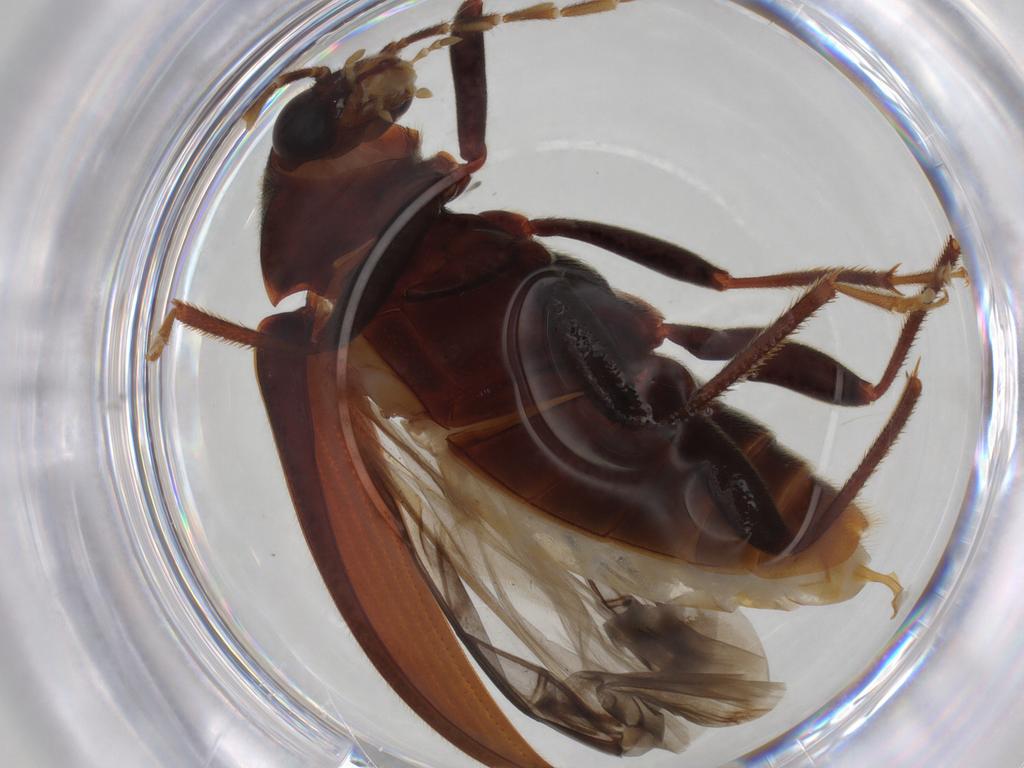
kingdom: Animalia
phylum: Arthropoda
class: Insecta
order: Coleoptera
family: Ptilodactylidae
